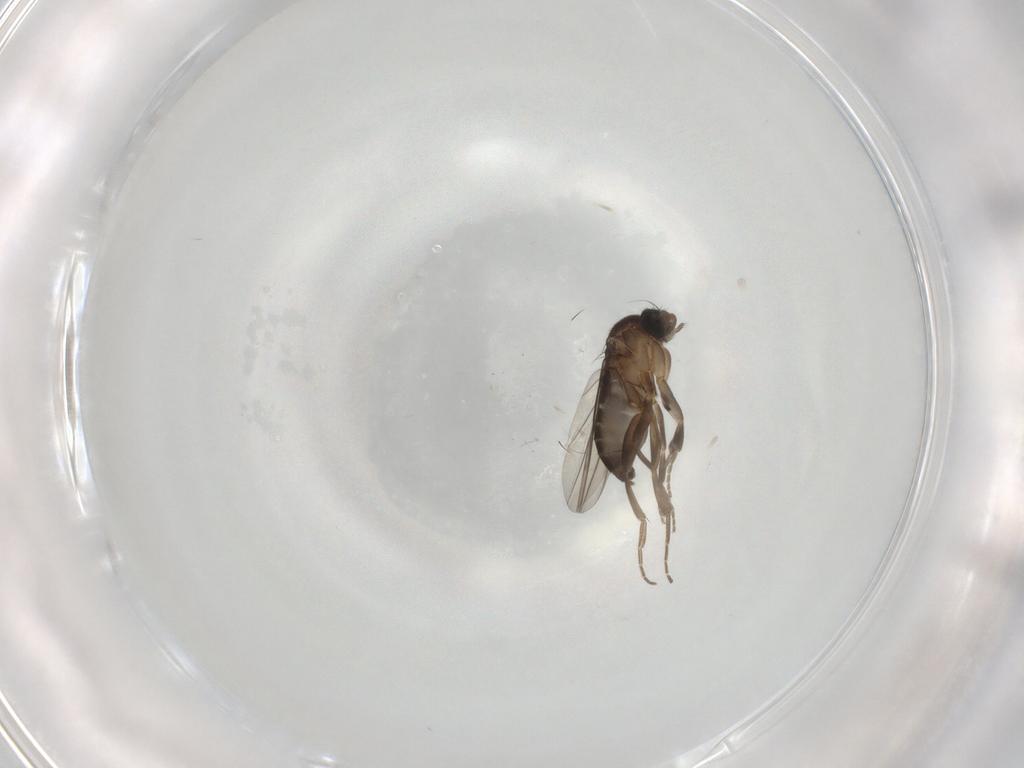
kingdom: Animalia
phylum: Arthropoda
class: Insecta
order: Diptera
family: Phoridae
